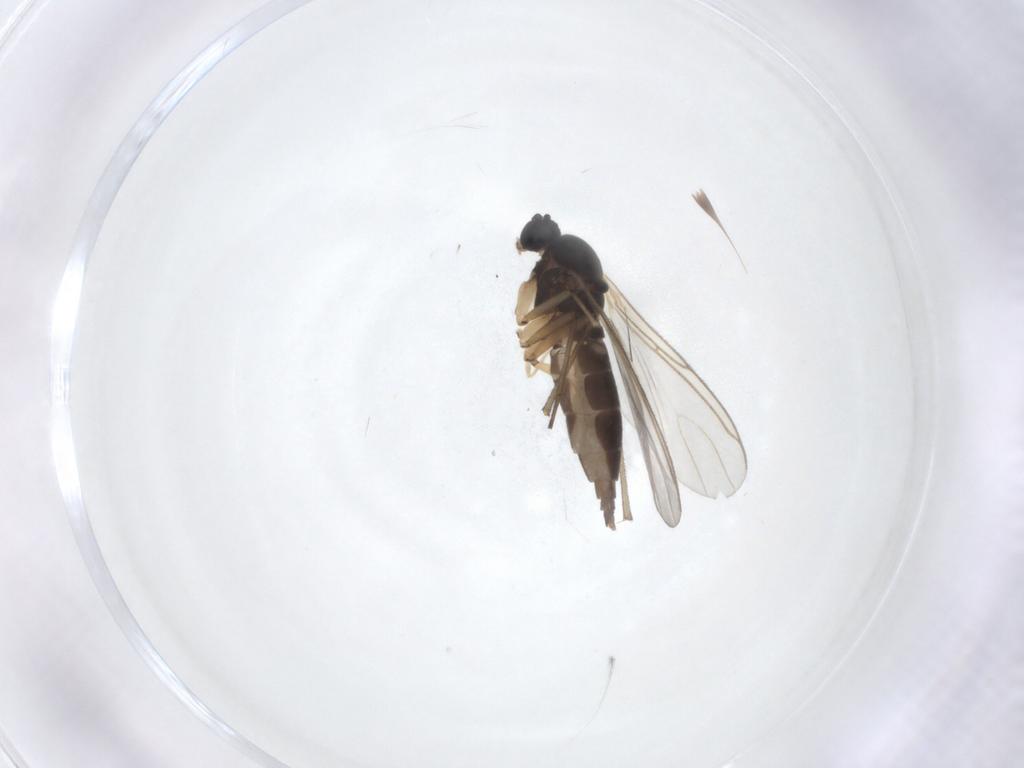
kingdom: Animalia
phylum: Arthropoda
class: Insecta
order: Diptera
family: Sciaridae
